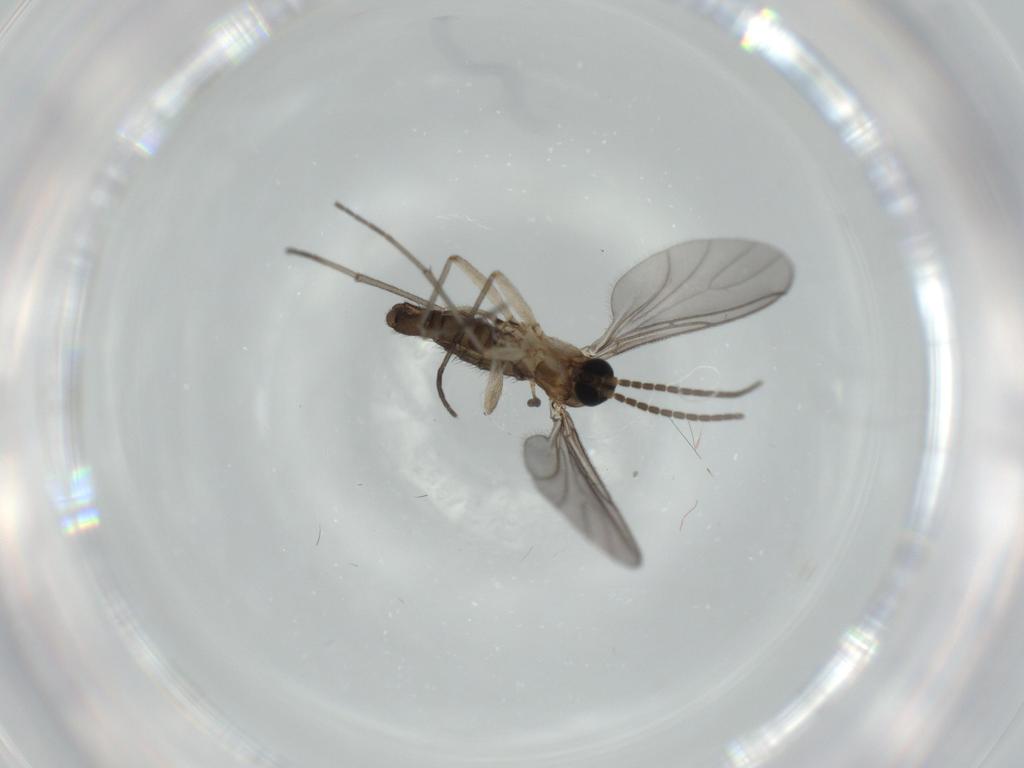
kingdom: Animalia
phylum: Arthropoda
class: Insecta
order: Diptera
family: Sciaridae
